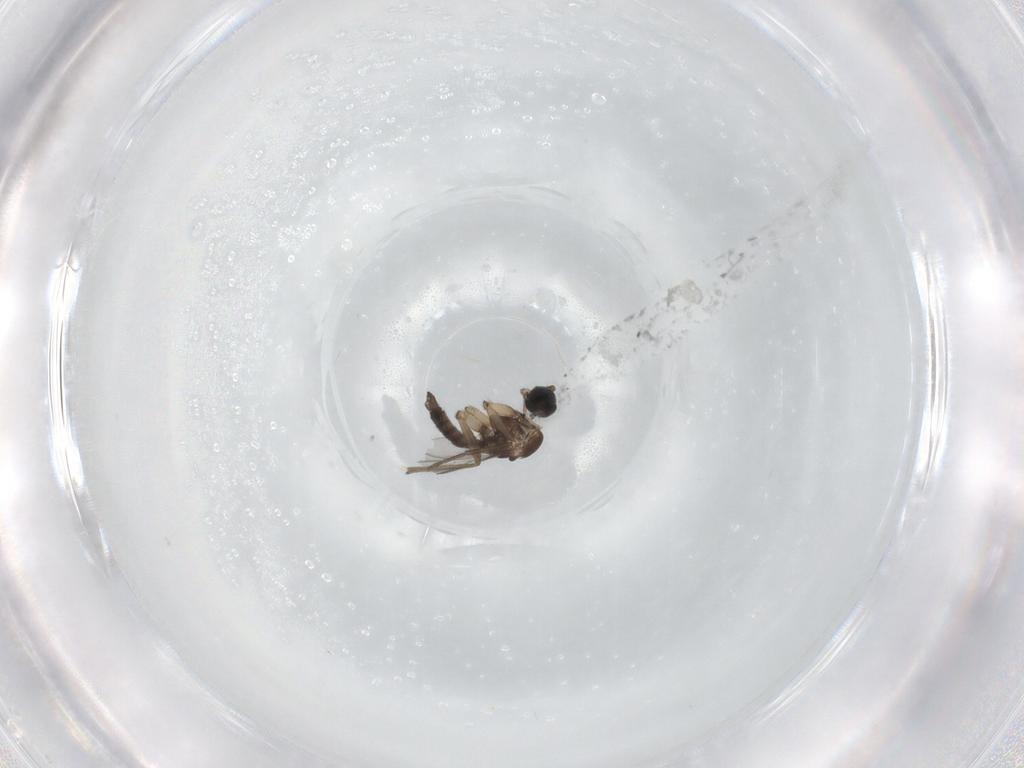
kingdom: Animalia
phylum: Arthropoda
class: Insecta
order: Diptera
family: Sciaridae
